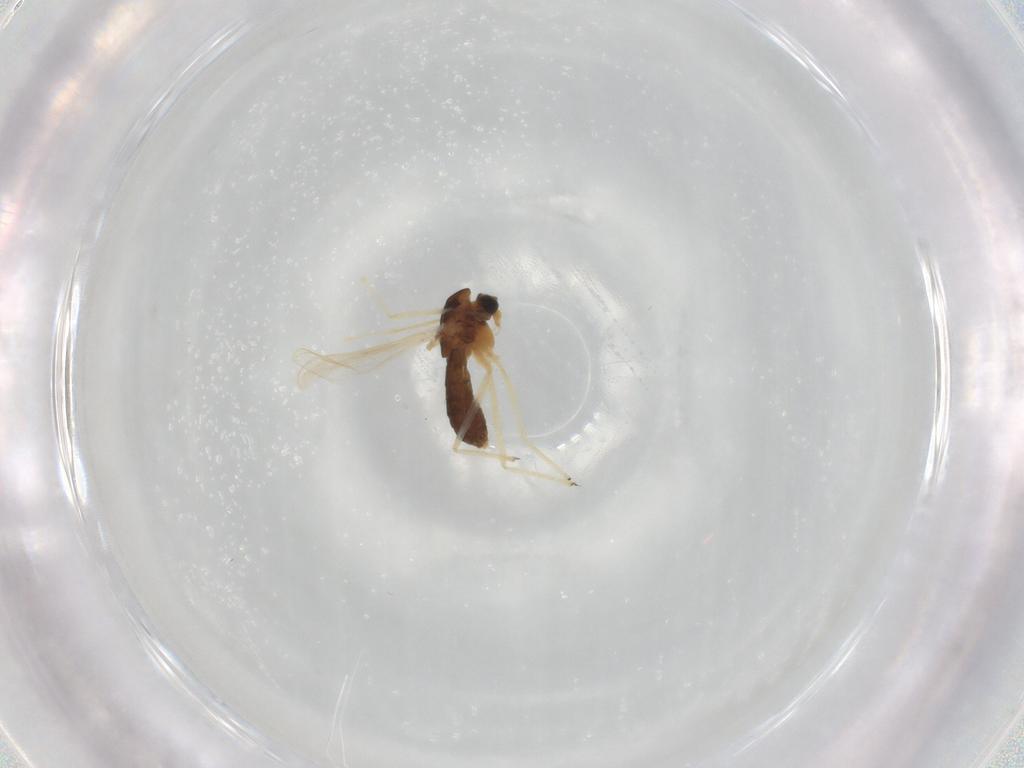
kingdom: Animalia
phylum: Arthropoda
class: Insecta
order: Diptera
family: Chironomidae
